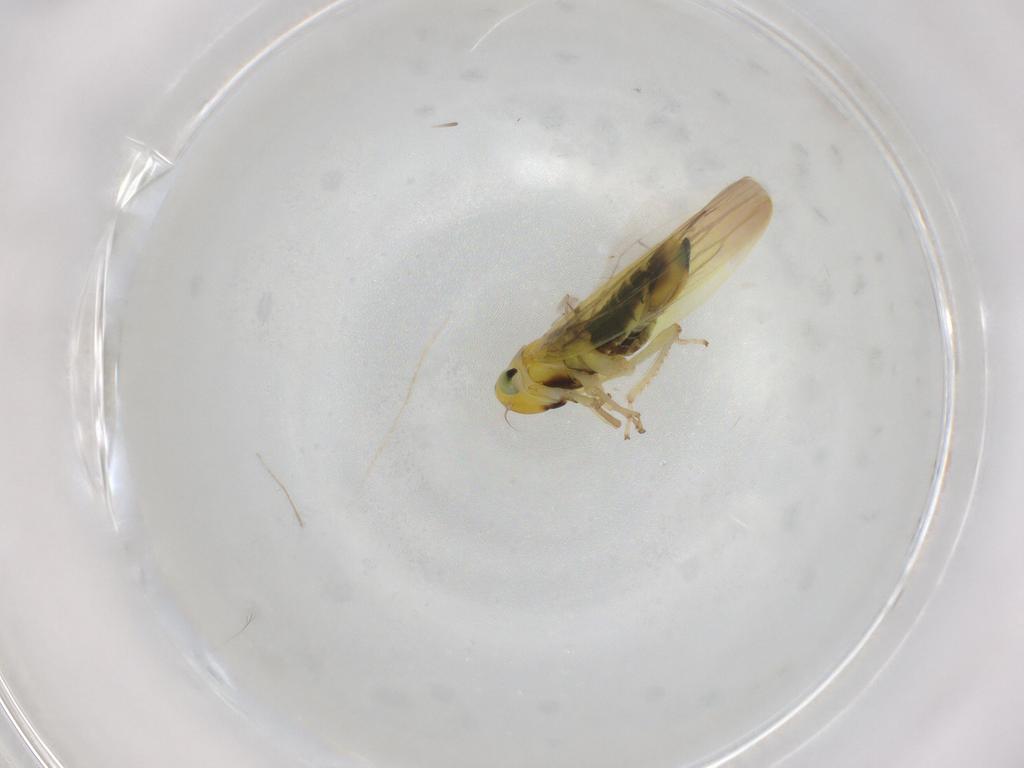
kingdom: Animalia
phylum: Arthropoda
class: Insecta
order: Hemiptera
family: Cicadellidae
